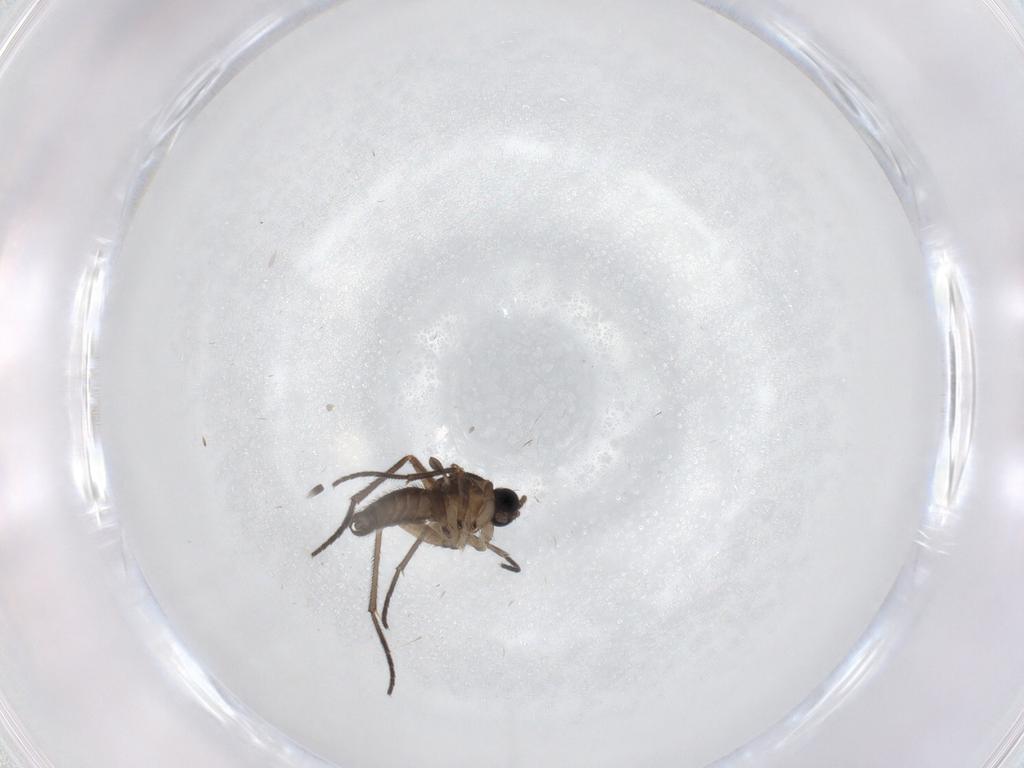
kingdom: Animalia
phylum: Arthropoda
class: Insecta
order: Diptera
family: Sciaridae
